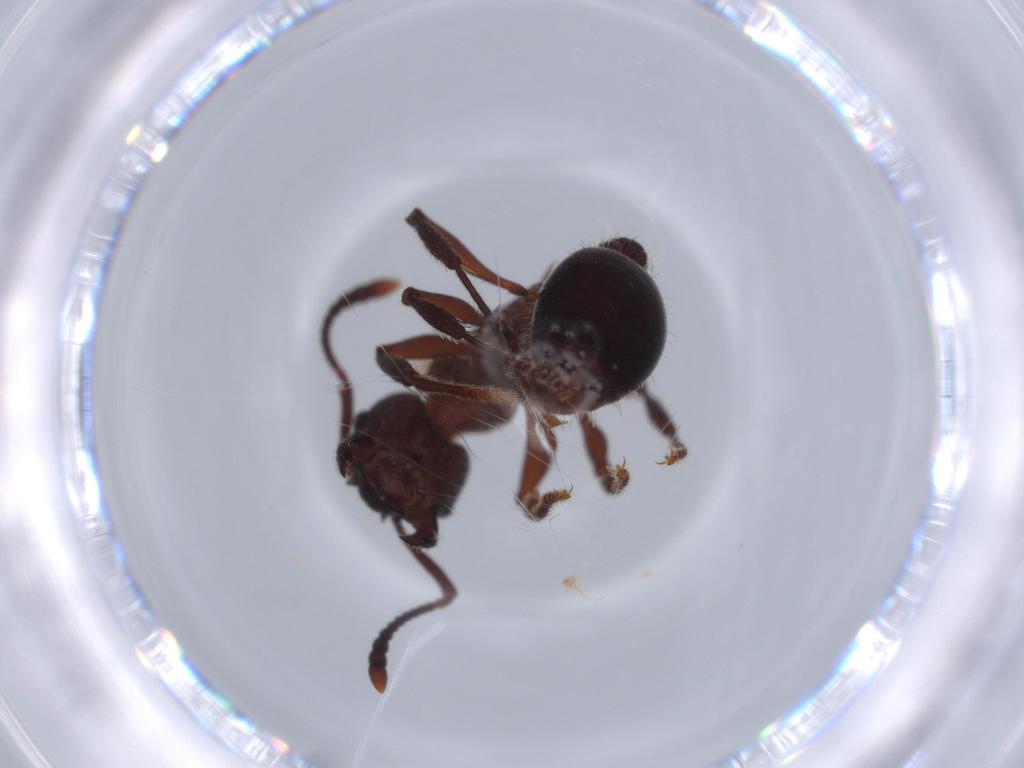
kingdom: Animalia
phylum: Arthropoda
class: Insecta
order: Hymenoptera
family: Formicidae
